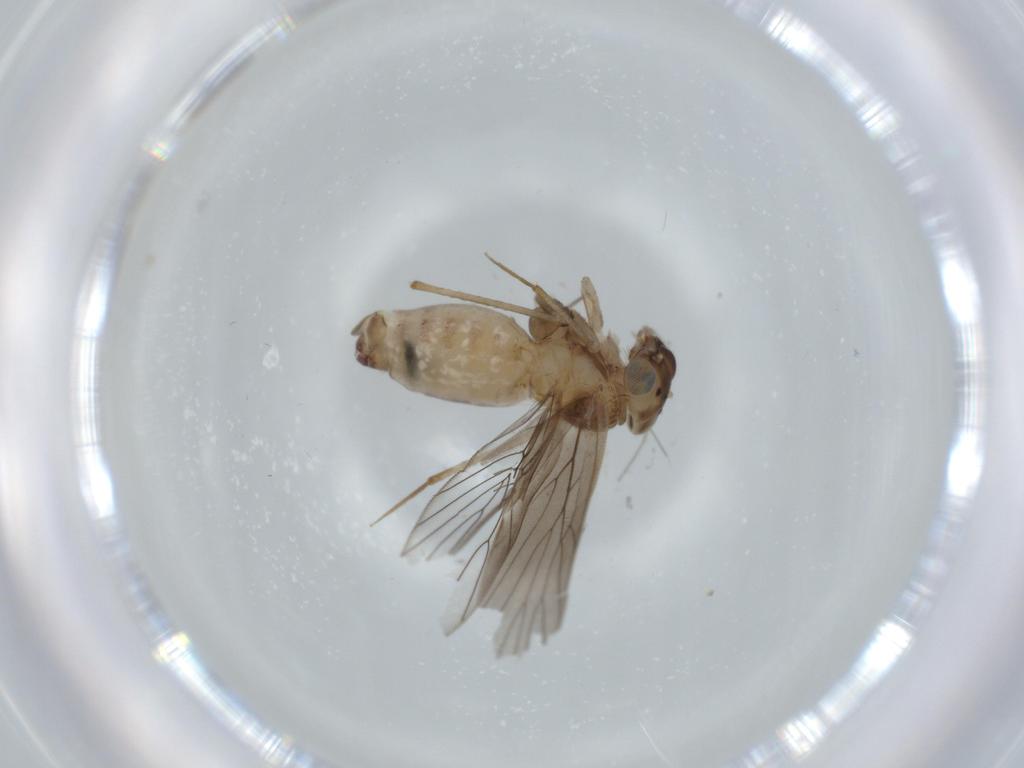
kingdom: Animalia
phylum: Arthropoda
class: Insecta
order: Psocodea
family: Lepidopsocidae
